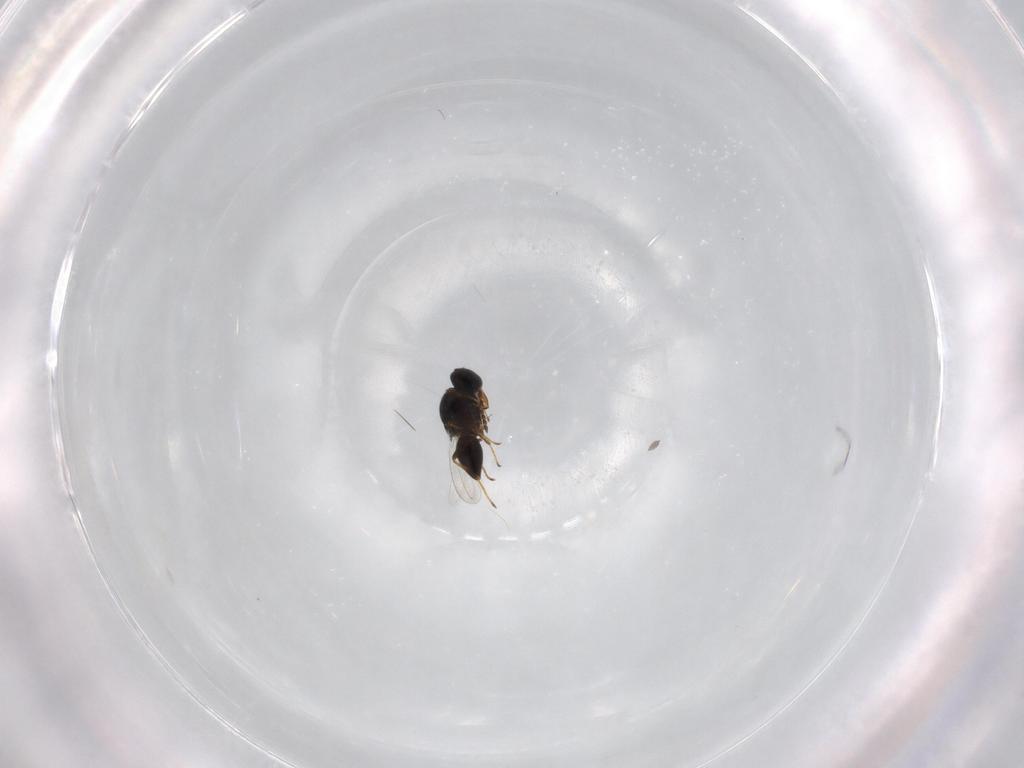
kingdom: Animalia
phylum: Arthropoda
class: Insecta
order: Hymenoptera
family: Platygastridae
